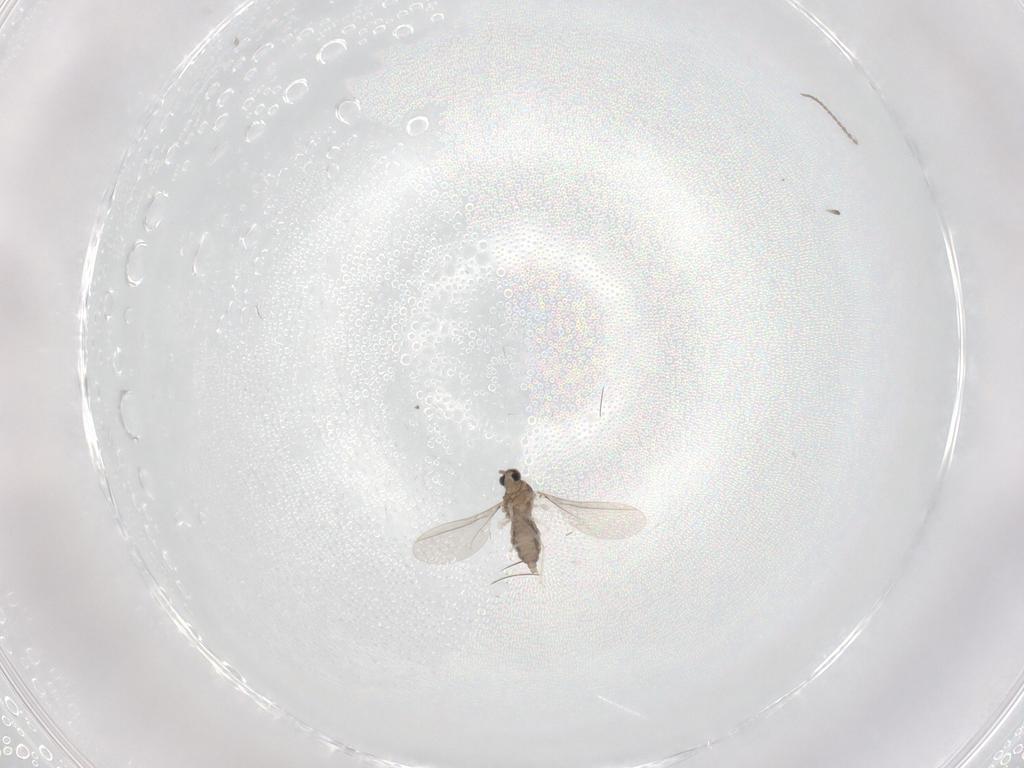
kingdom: Animalia
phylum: Arthropoda
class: Insecta
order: Diptera
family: Cecidomyiidae
